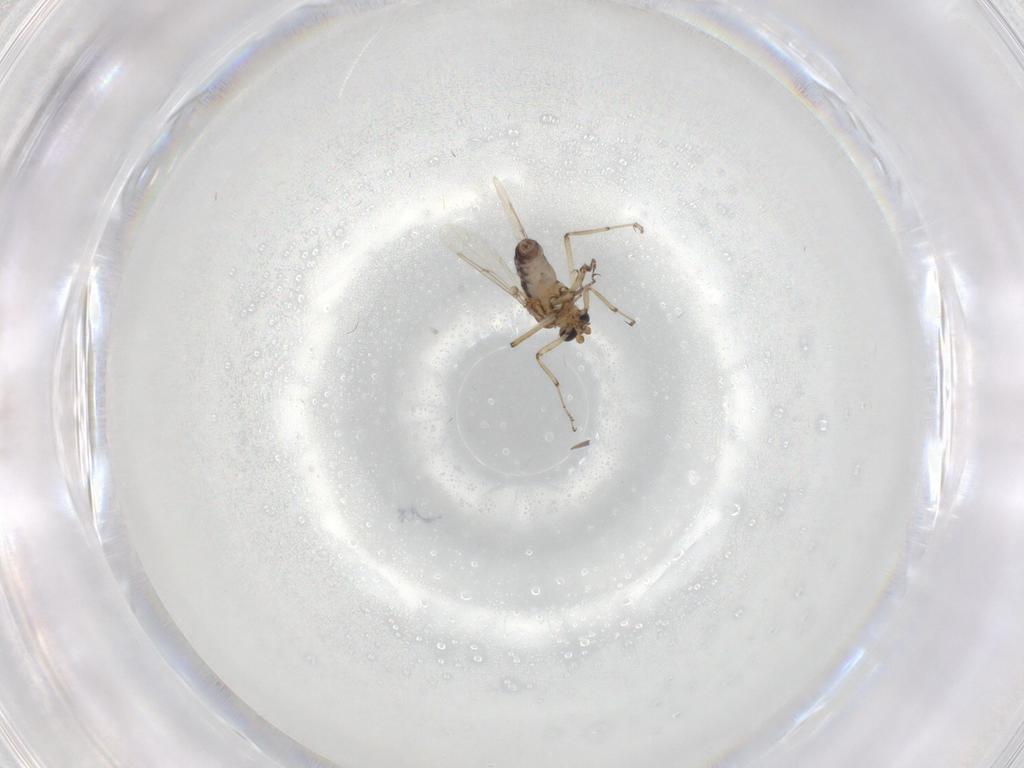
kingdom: Animalia
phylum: Arthropoda
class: Insecta
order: Diptera
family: Ceratopogonidae
